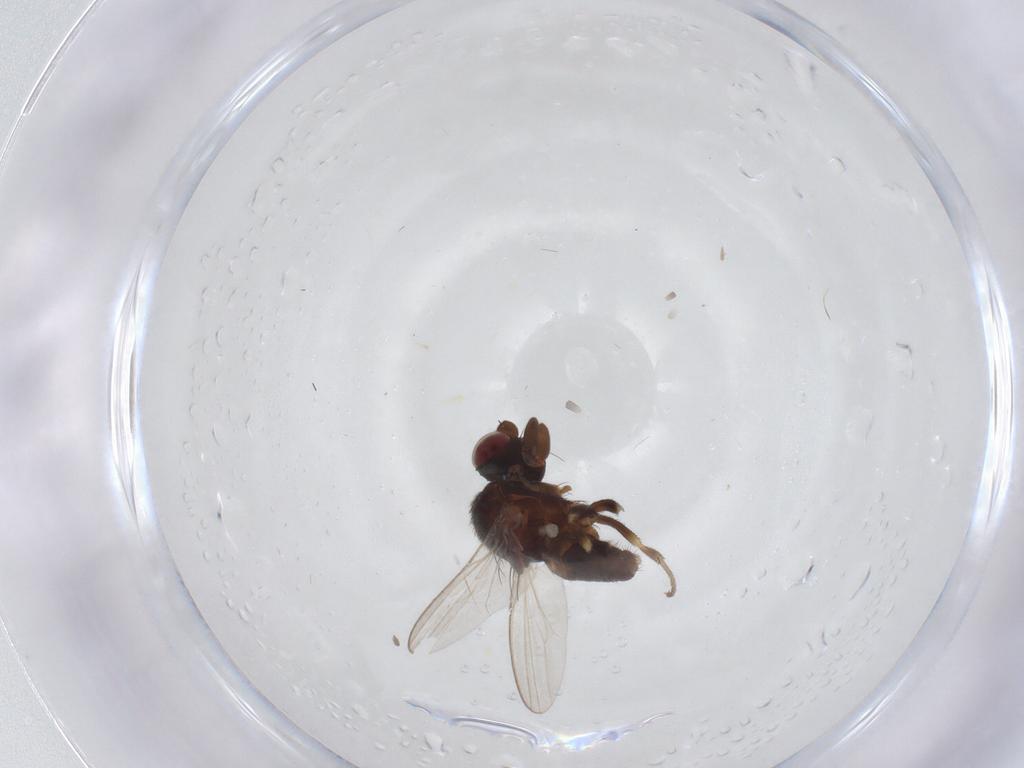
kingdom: Animalia
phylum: Arthropoda
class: Insecta
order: Diptera
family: Milichiidae
